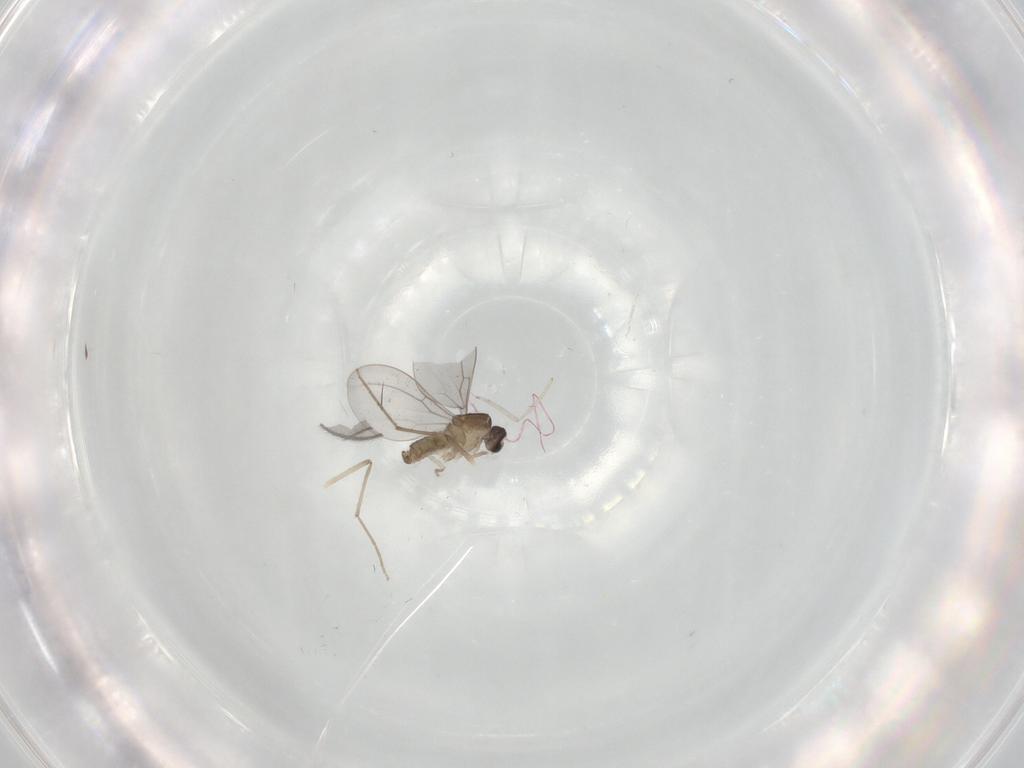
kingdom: Animalia
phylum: Arthropoda
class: Insecta
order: Diptera
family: Cecidomyiidae
